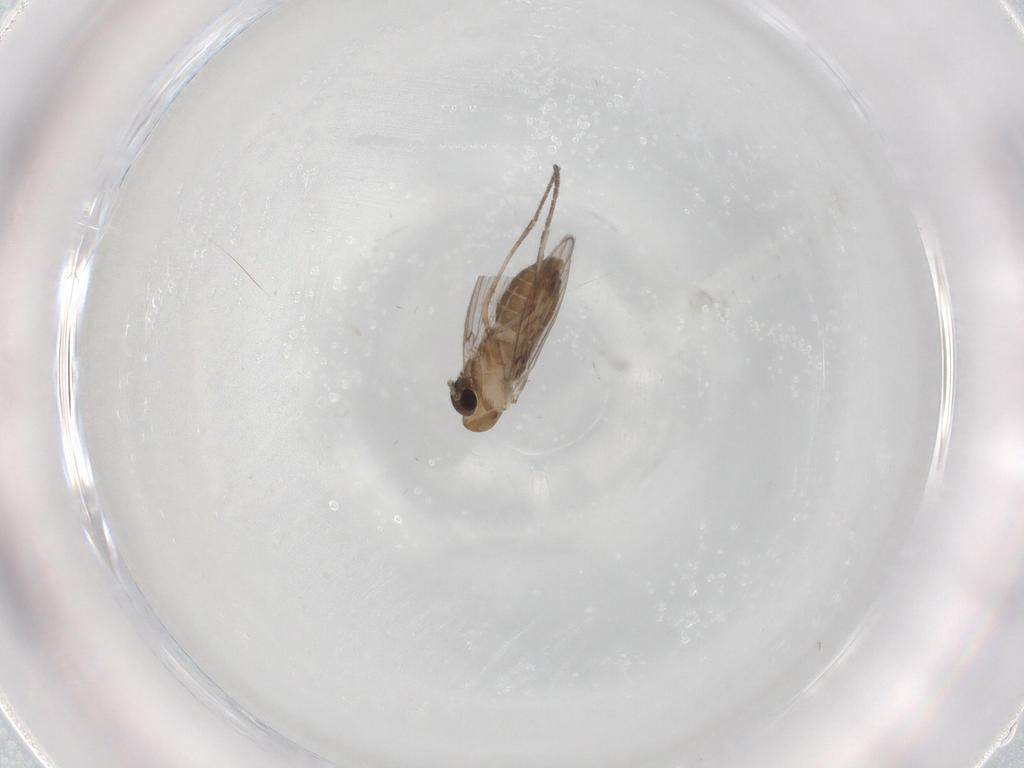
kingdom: Animalia
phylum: Arthropoda
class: Insecta
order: Diptera
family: Psychodidae
